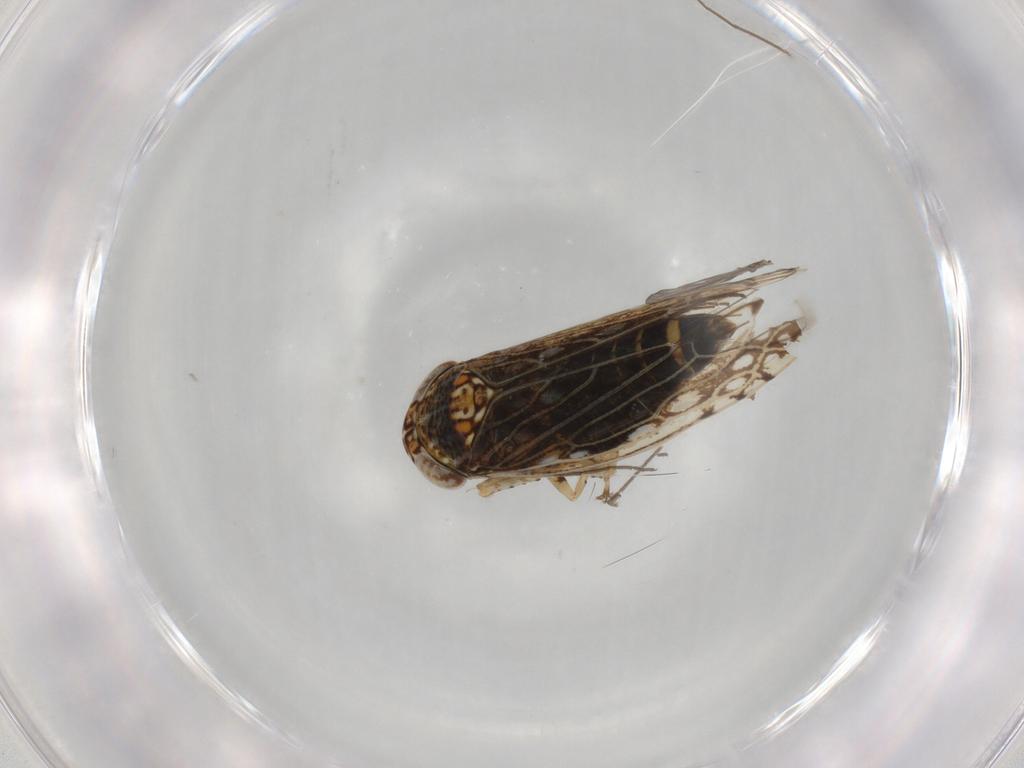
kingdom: Animalia
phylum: Arthropoda
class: Insecta
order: Hemiptera
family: Cicadellidae
